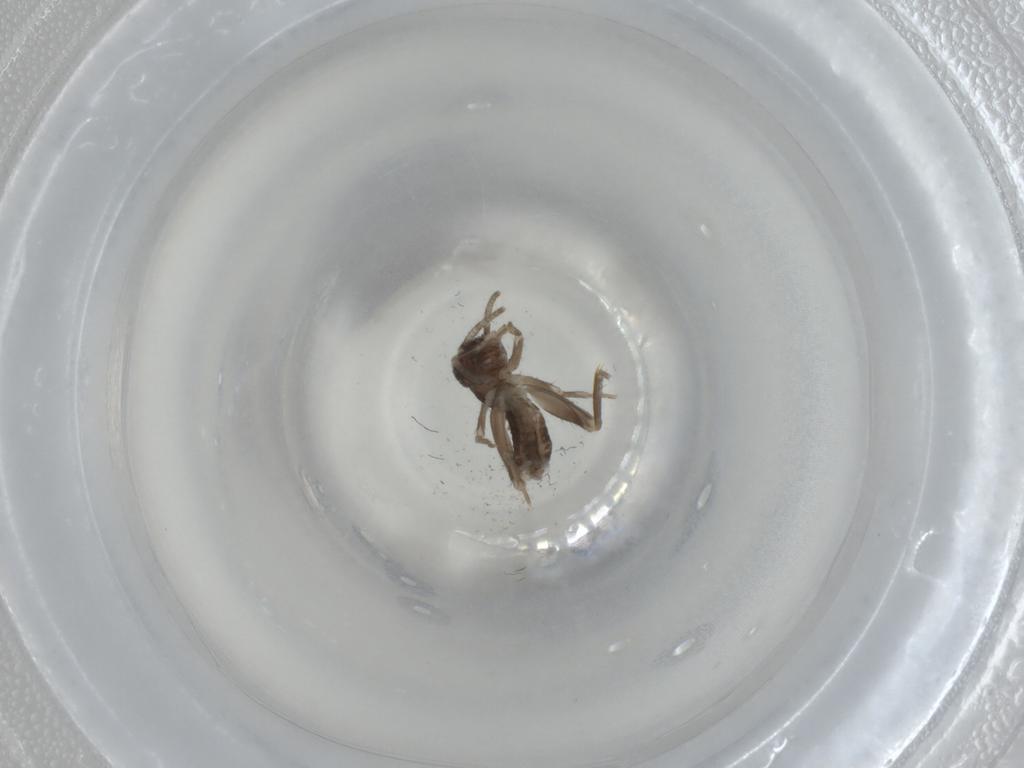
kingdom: Animalia
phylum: Arthropoda
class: Insecta
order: Orthoptera
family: Gryllidae
